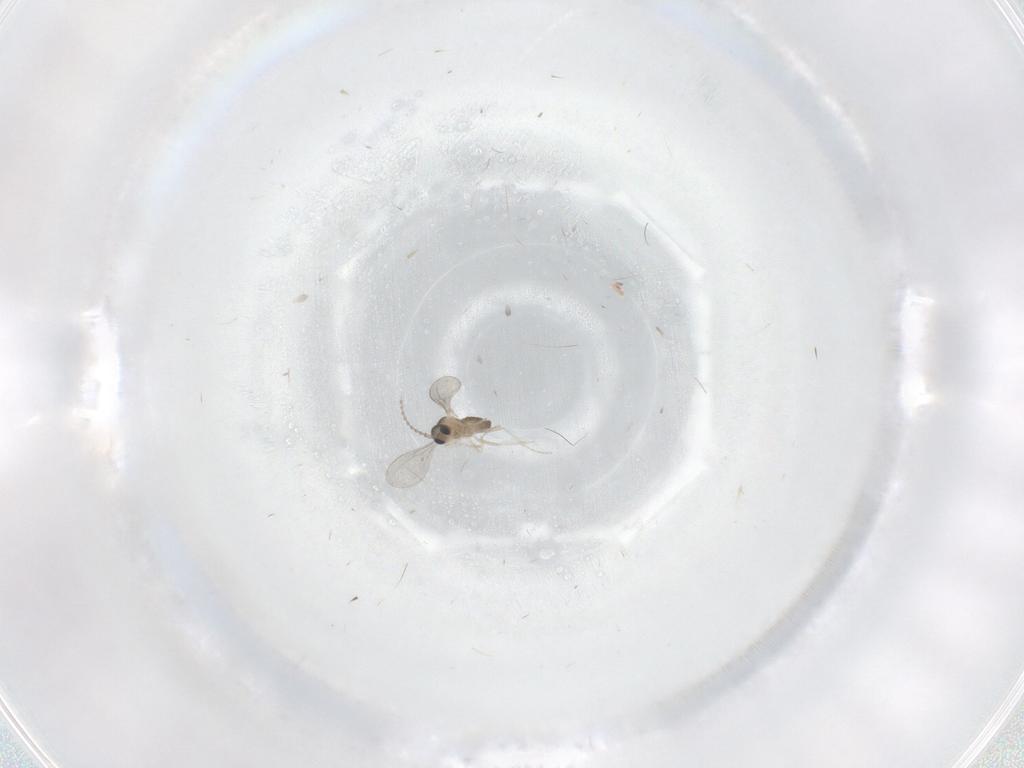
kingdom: Animalia
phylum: Arthropoda
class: Insecta
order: Diptera
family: Cecidomyiidae
